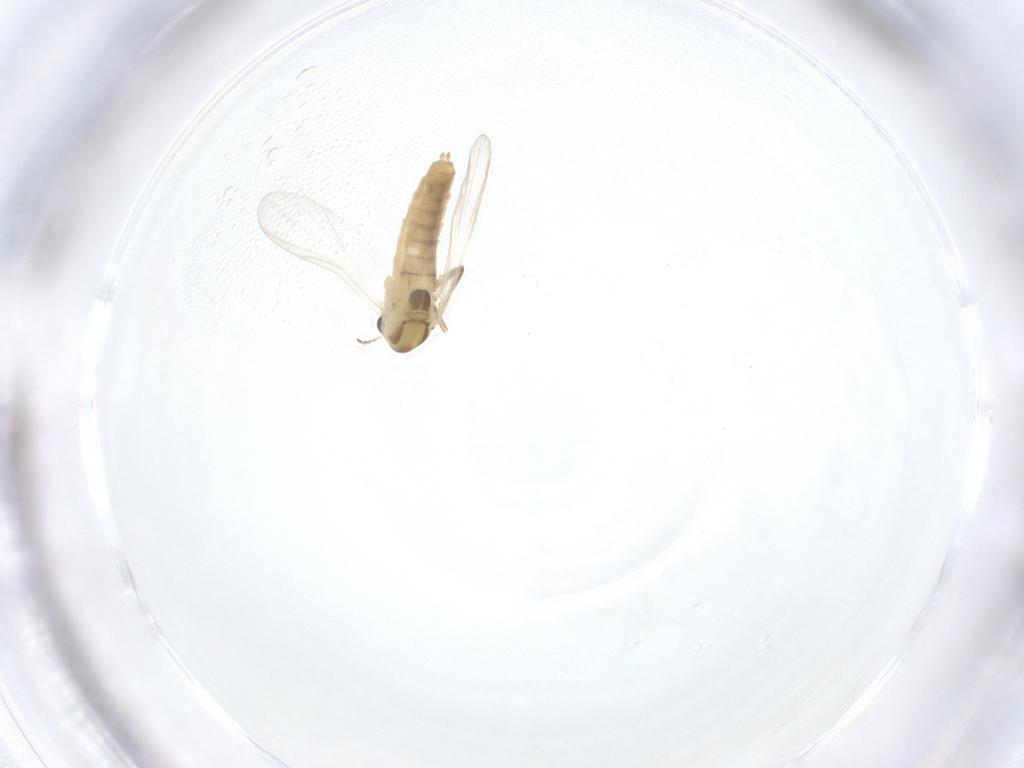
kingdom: Animalia
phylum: Arthropoda
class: Insecta
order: Diptera
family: Chironomidae
